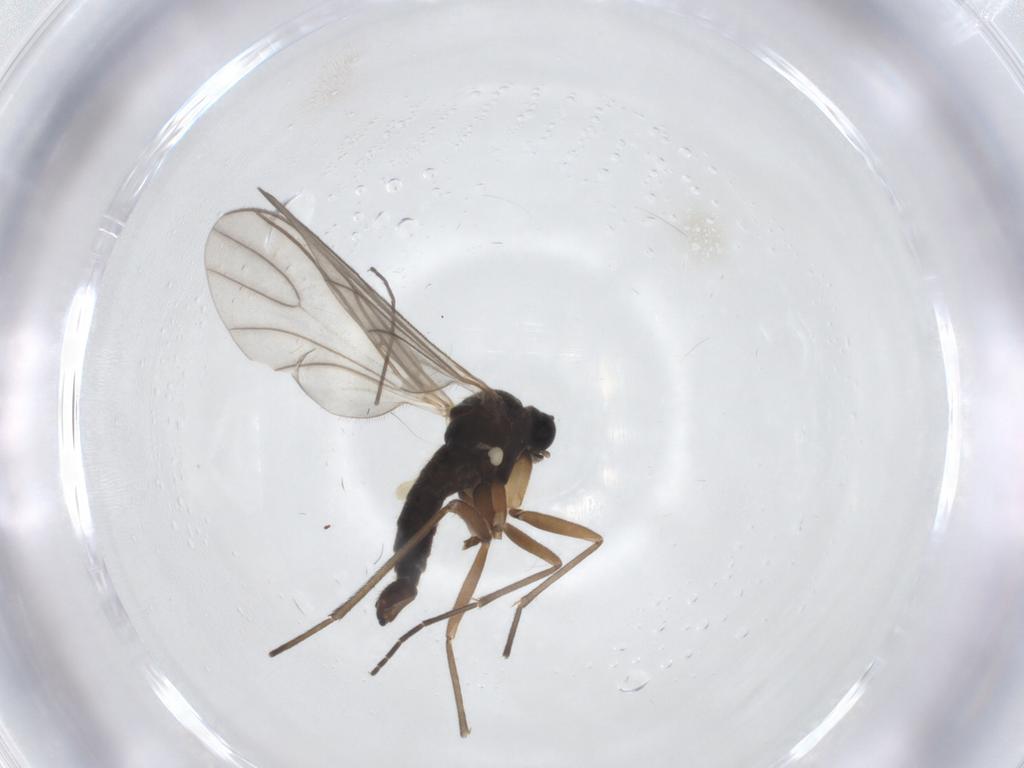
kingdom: Animalia
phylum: Arthropoda
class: Insecta
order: Diptera
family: Sciaridae
